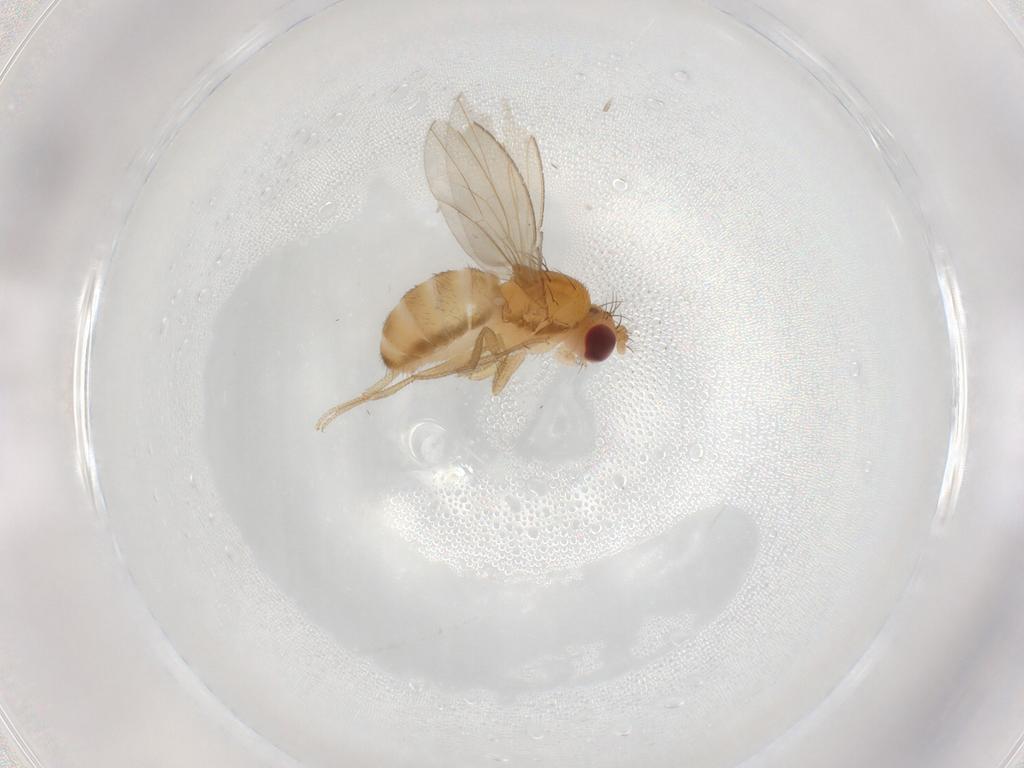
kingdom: Animalia
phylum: Arthropoda
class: Insecta
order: Diptera
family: Drosophilidae
